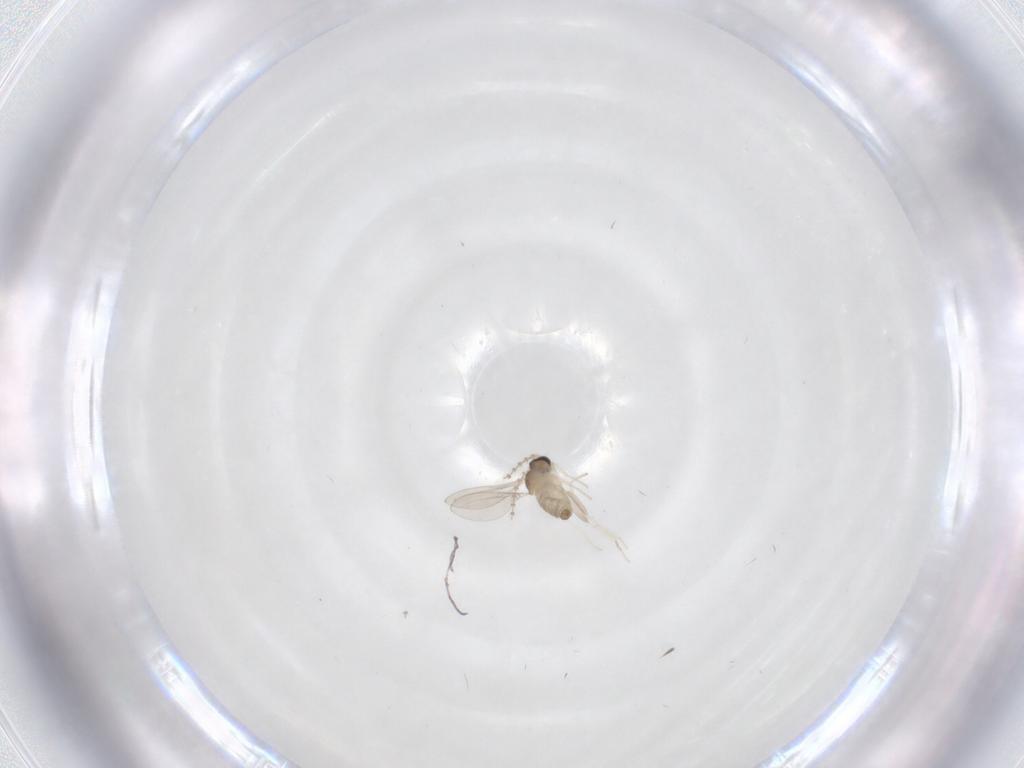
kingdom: Animalia
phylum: Arthropoda
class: Insecta
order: Diptera
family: Cecidomyiidae
